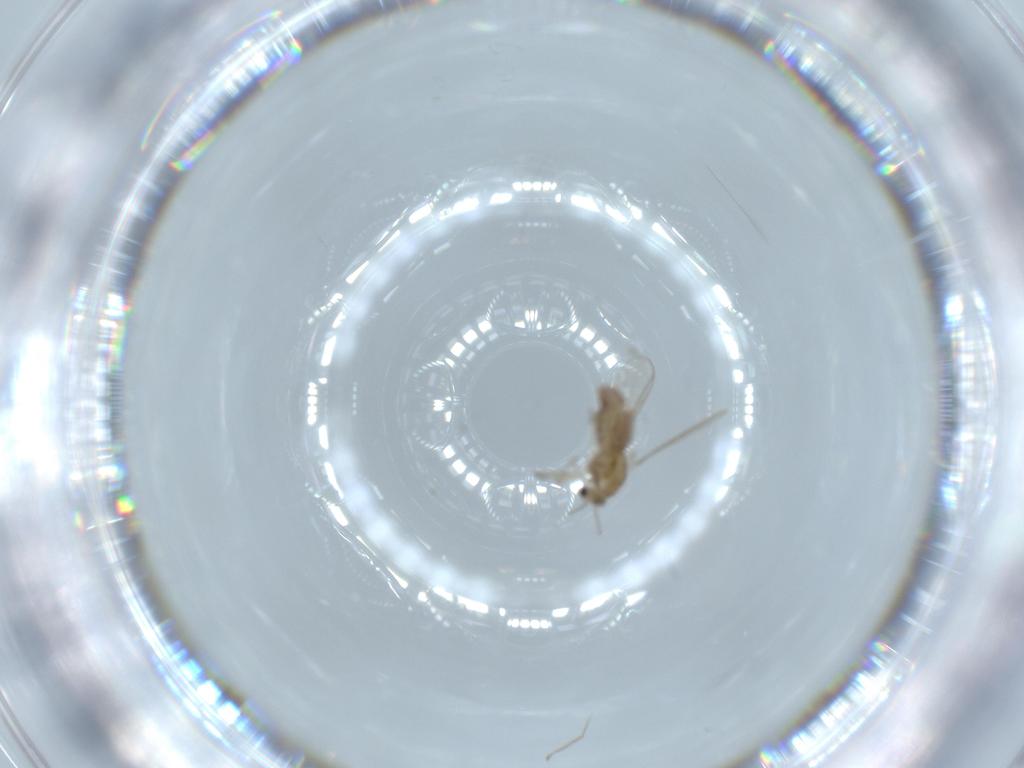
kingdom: Animalia
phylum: Arthropoda
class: Insecta
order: Diptera
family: Chironomidae
